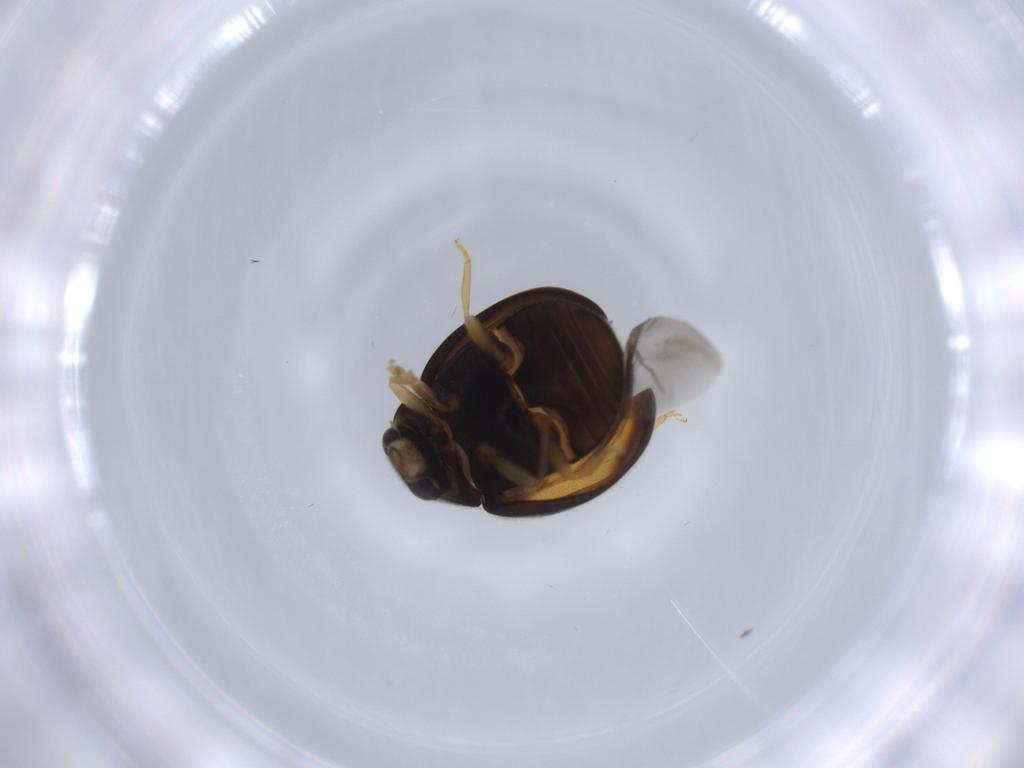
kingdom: Animalia
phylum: Arthropoda
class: Insecta
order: Coleoptera
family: Coccinellidae
